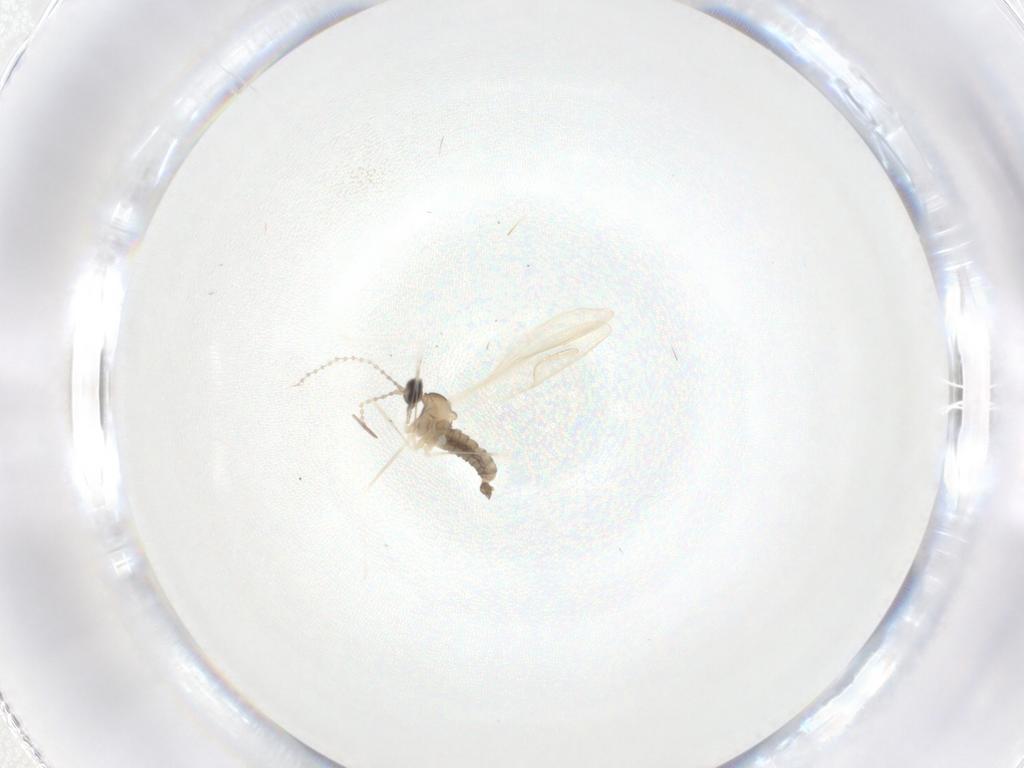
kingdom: Animalia
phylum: Arthropoda
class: Insecta
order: Diptera
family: Cecidomyiidae
